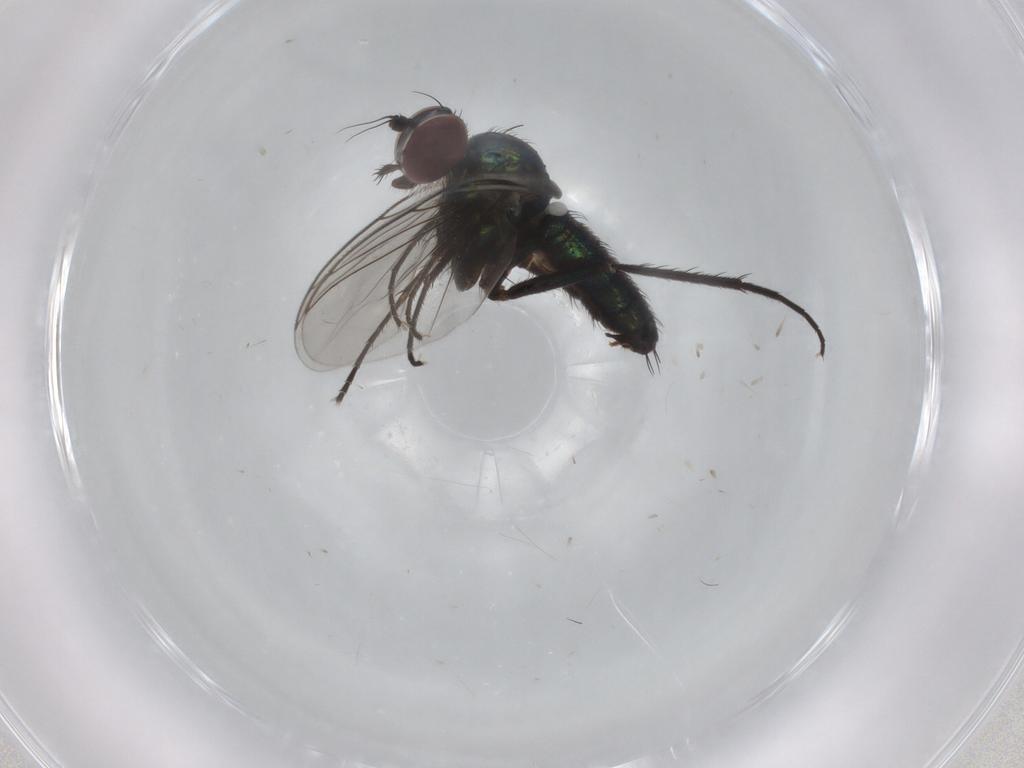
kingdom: Animalia
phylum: Arthropoda
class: Insecta
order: Diptera
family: Dolichopodidae
